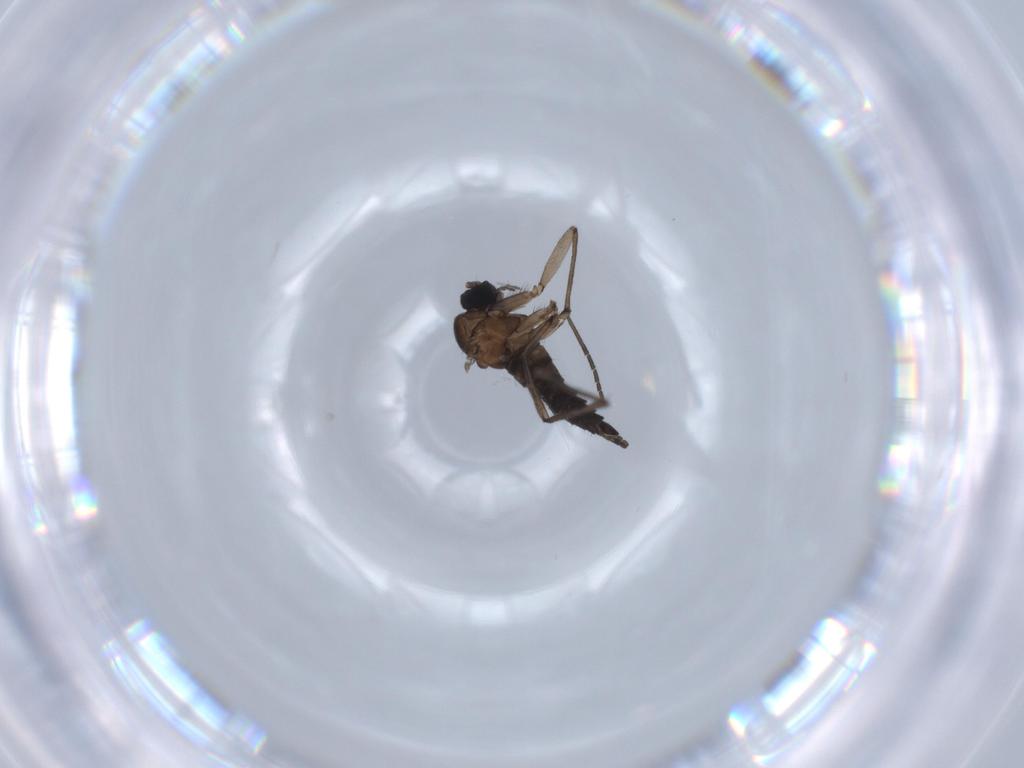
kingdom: Animalia
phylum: Arthropoda
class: Insecta
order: Diptera
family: Sciaridae
